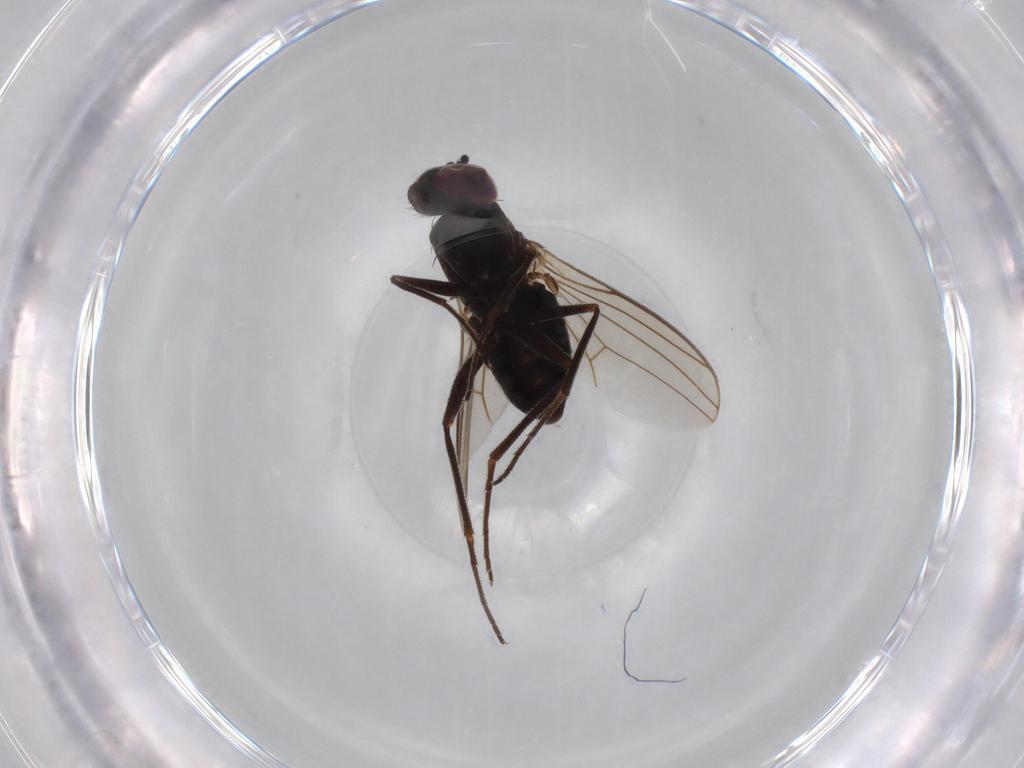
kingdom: Animalia
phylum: Arthropoda
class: Insecta
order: Diptera
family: Dolichopodidae
